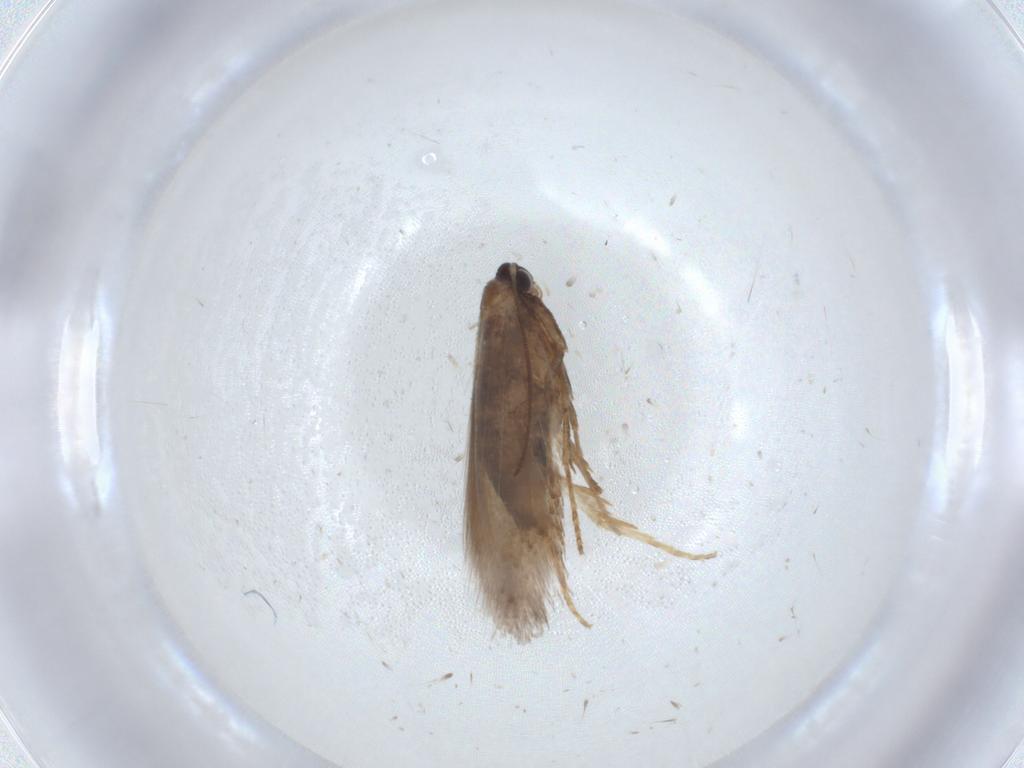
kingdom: Animalia
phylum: Arthropoda
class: Insecta
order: Lepidoptera
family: Nepticulidae
